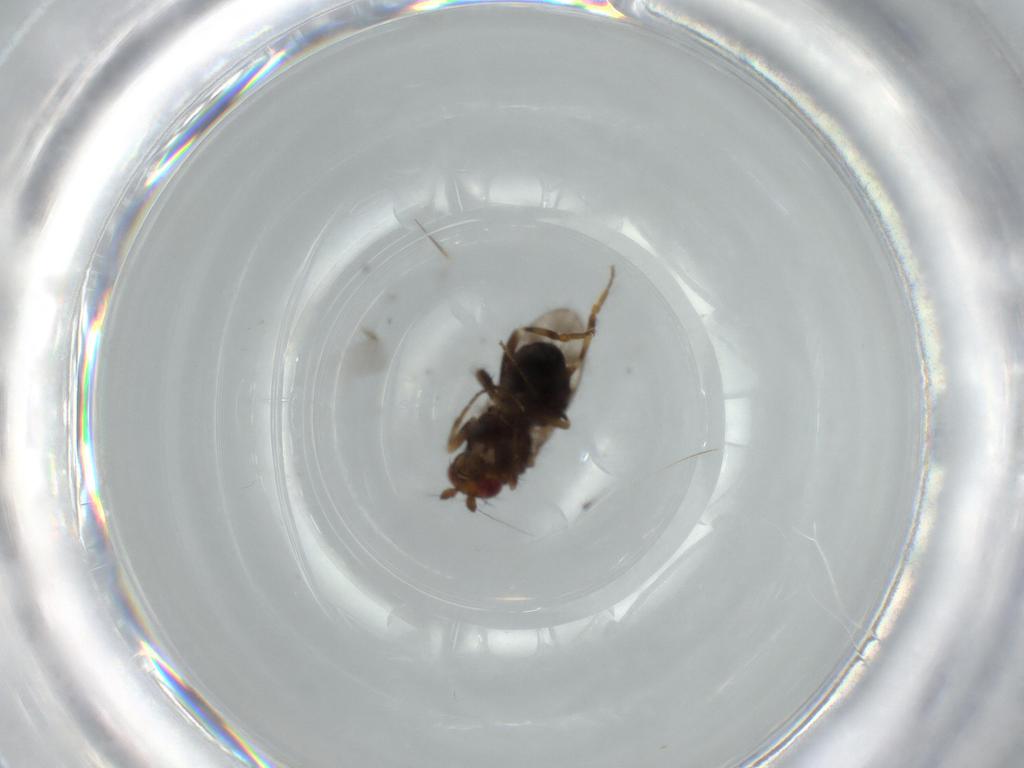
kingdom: Animalia
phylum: Arthropoda
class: Insecta
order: Diptera
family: Sphaeroceridae
